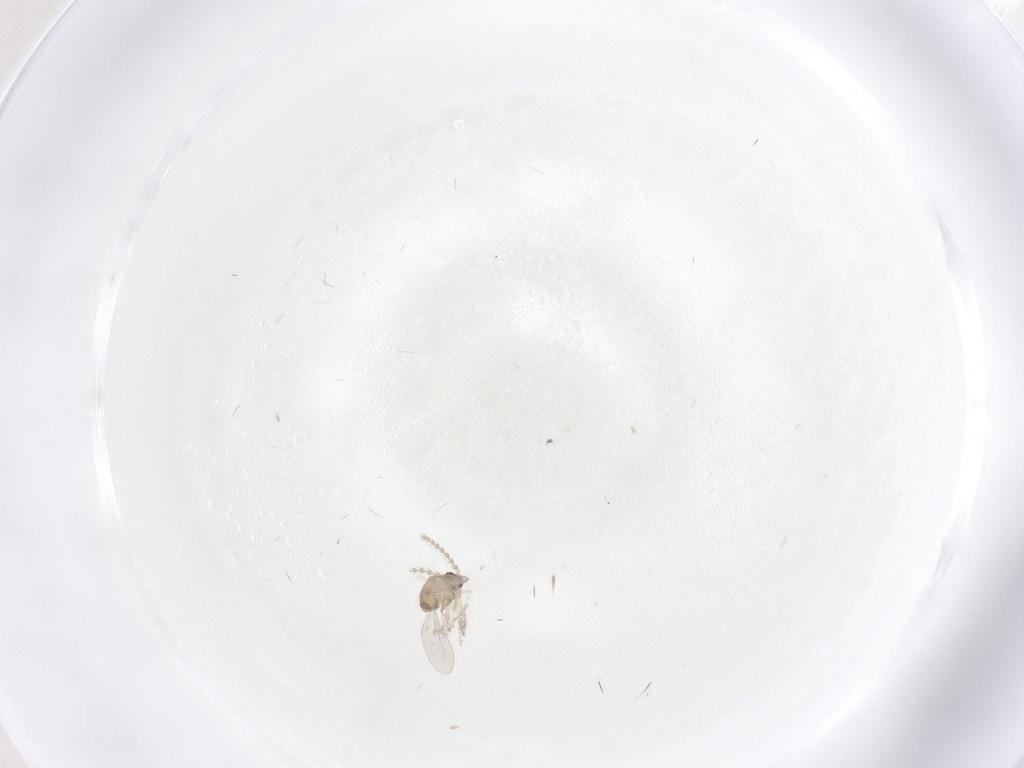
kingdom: Animalia
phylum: Arthropoda
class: Insecta
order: Diptera
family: Cecidomyiidae
